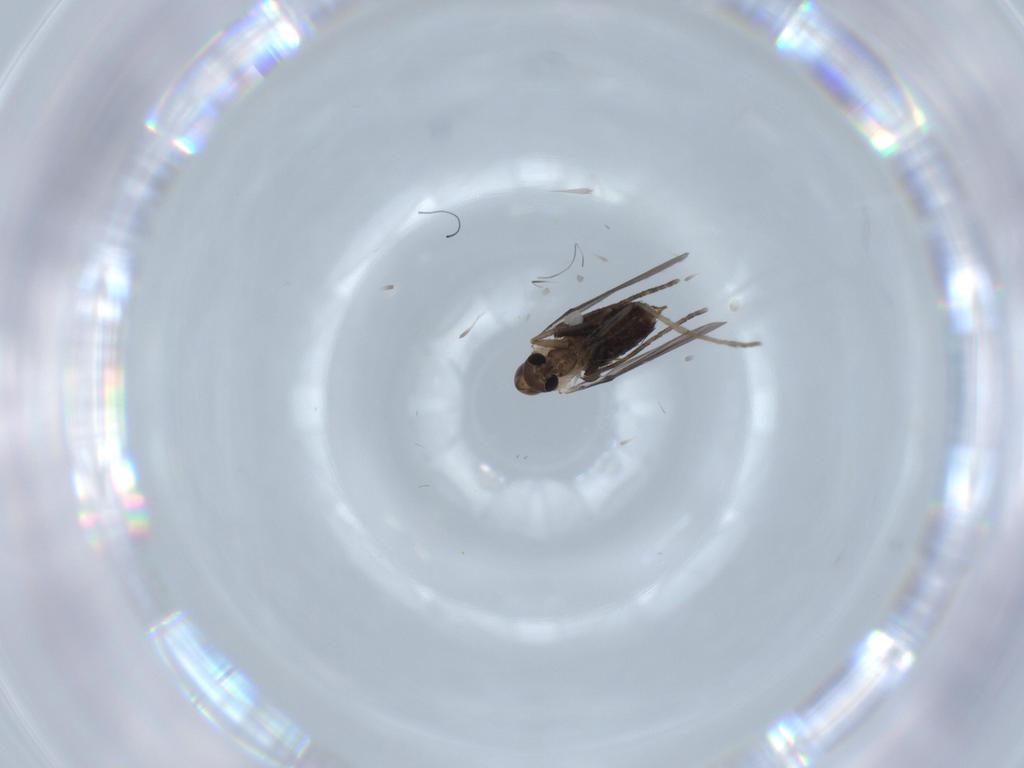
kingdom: Animalia
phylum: Arthropoda
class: Insecta
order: Diptera
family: Psychodidae
